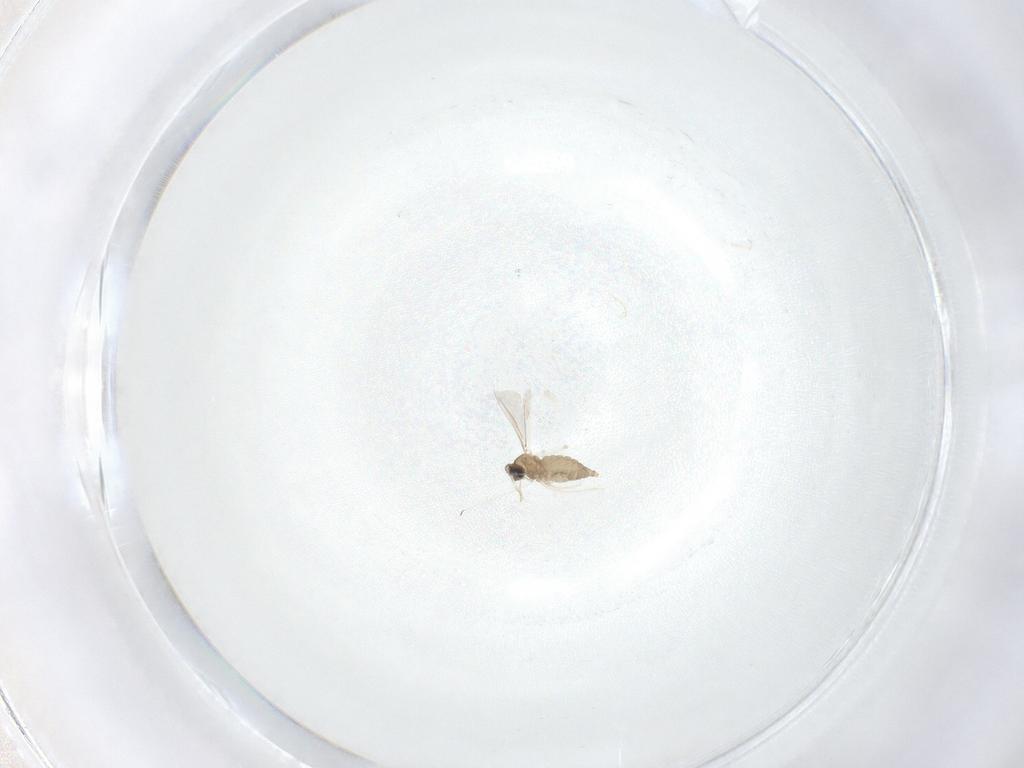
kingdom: Animalia
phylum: Arthropoda
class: Insecta
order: Diptera
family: Cecidomyiidae
